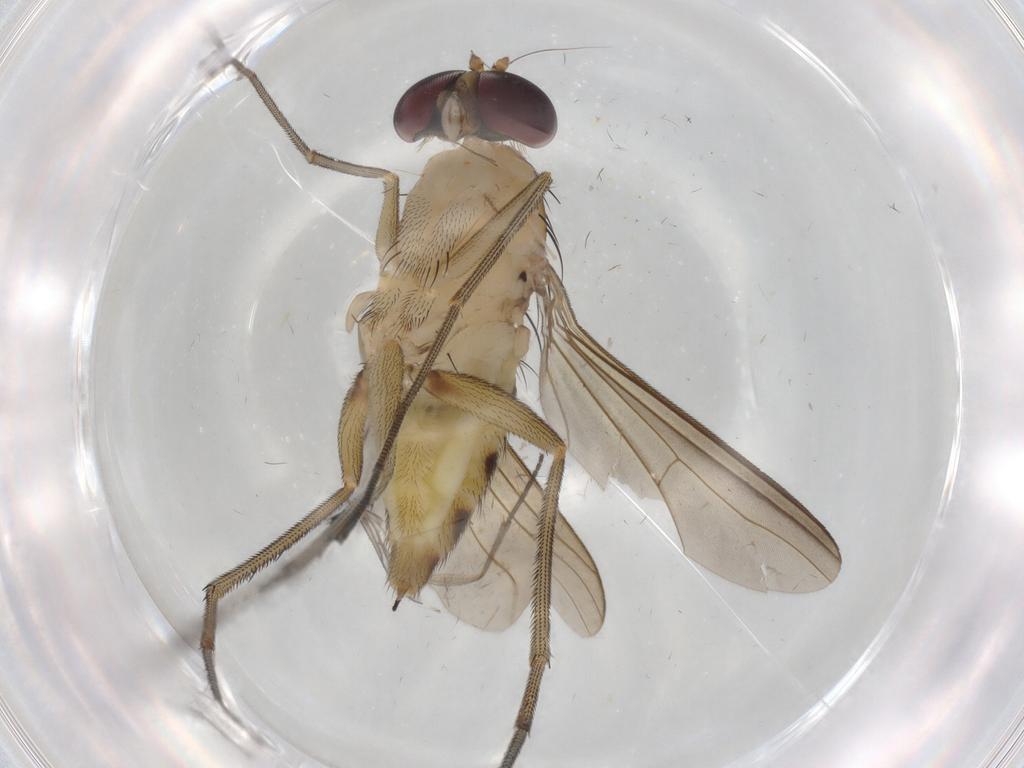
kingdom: Animalia
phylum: Arthropoda
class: Insecta
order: Diptera
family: Dolichopodidae
